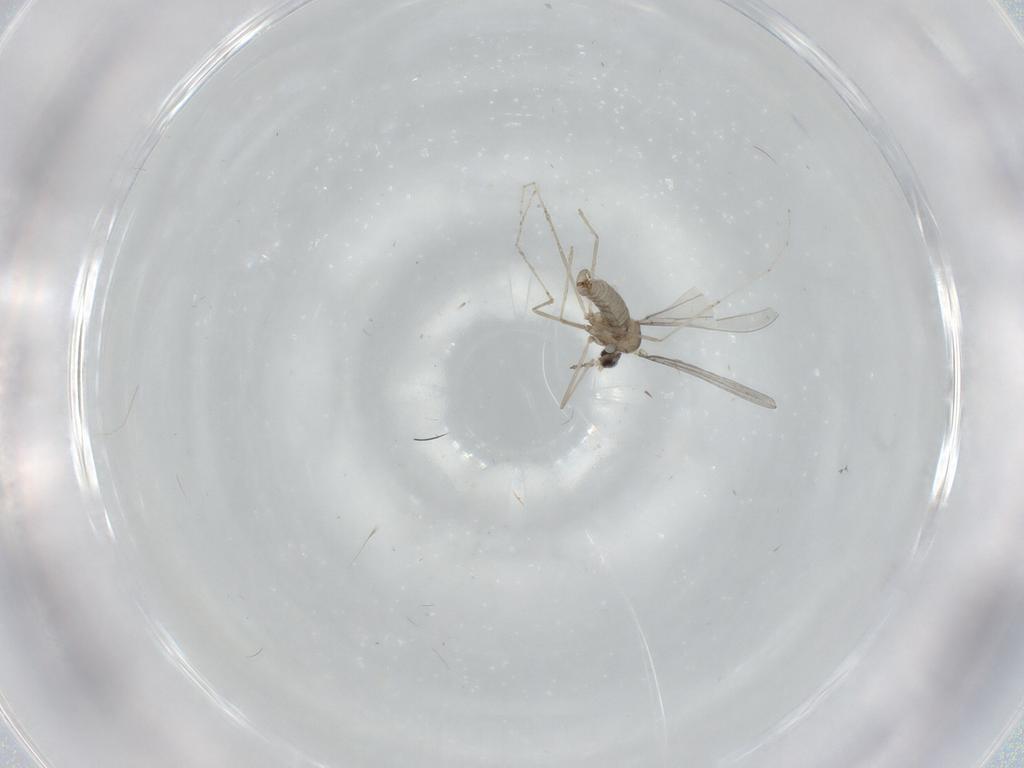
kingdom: Animalia
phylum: Arthropoda
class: Insecta
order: Diptera
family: Cecidomyiidae
